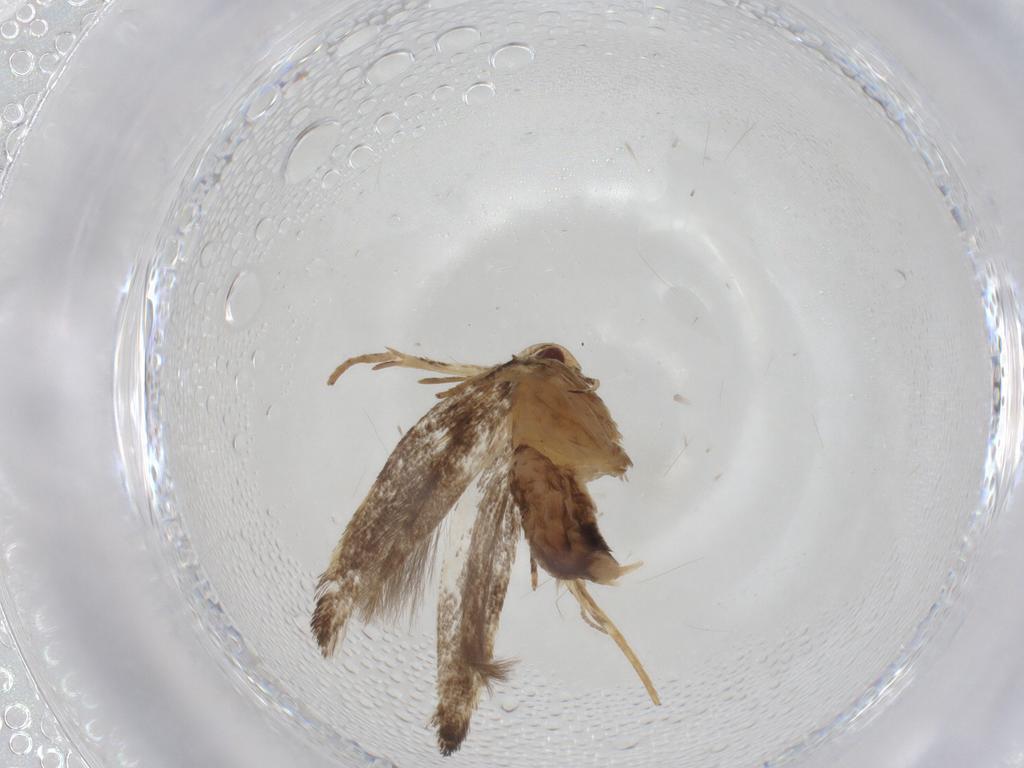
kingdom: Animalia
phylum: Arthropoda
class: Insecta
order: Lepidoptera
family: Cosmopterigidae
